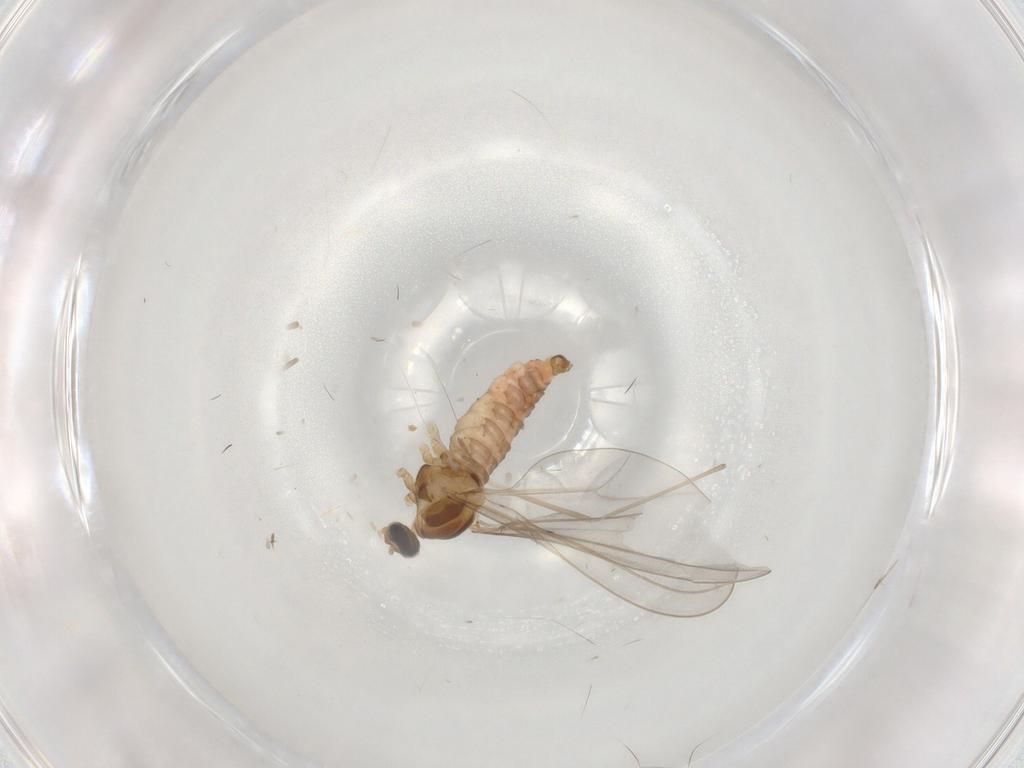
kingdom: Animalia
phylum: Arthropoda
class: Insecta
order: Diptera
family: Cecidomyiidae
